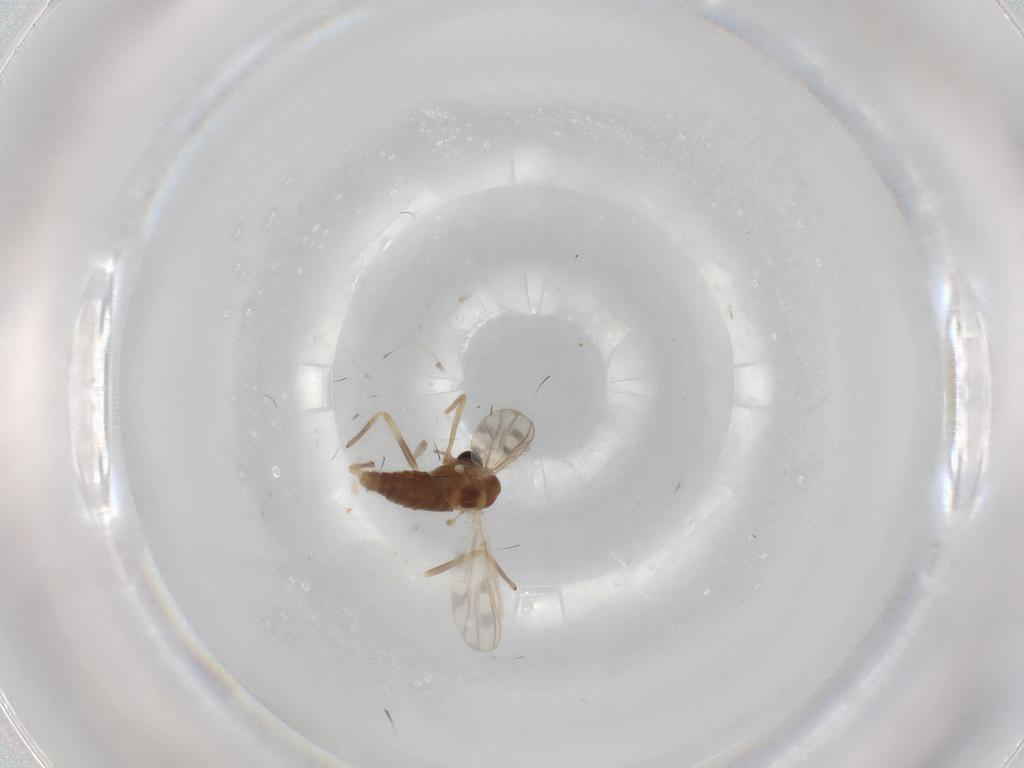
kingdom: Animalia
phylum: Arthropoda
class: Insecta
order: Diptera
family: Chironomidae
